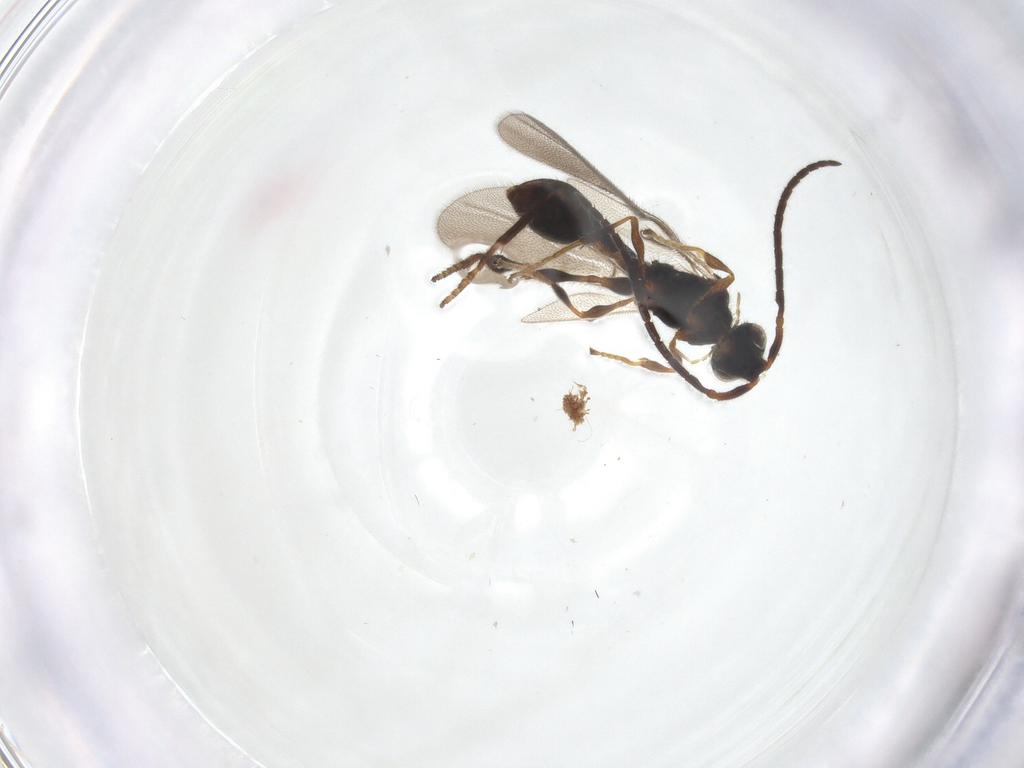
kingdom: Animalia
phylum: Arthropoda
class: Insecta
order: Hymenoptera
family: Diapriidae
